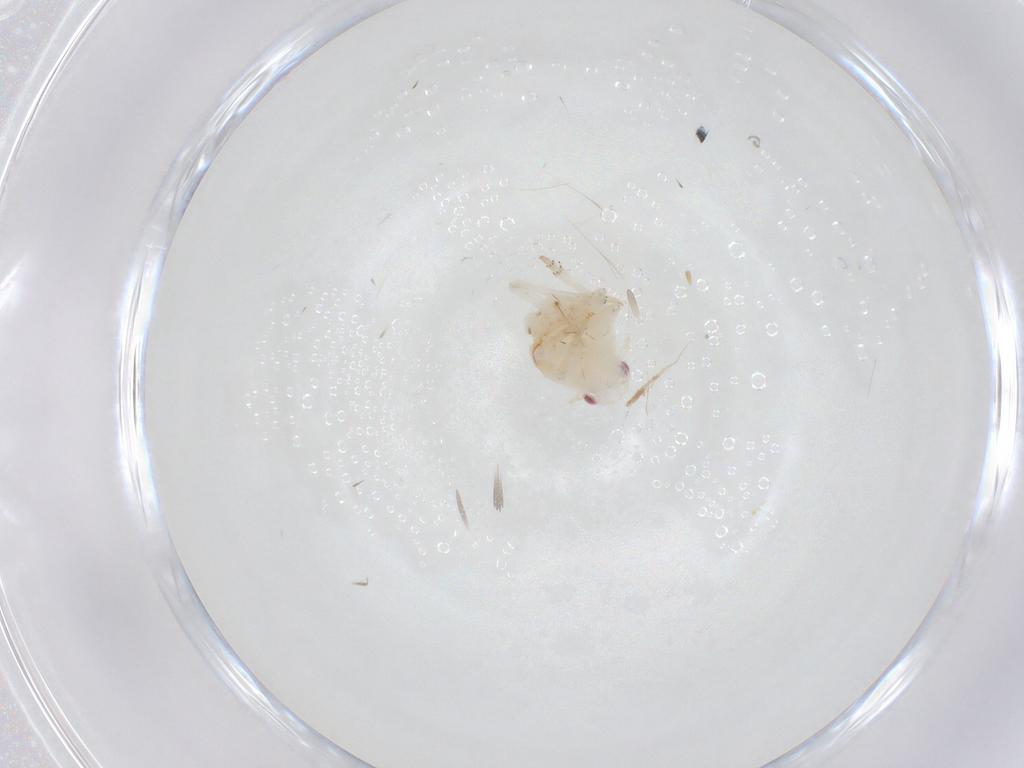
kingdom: Animalia
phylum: Arthropoda
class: Insecta
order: Hemiptera
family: Ricaniidae
